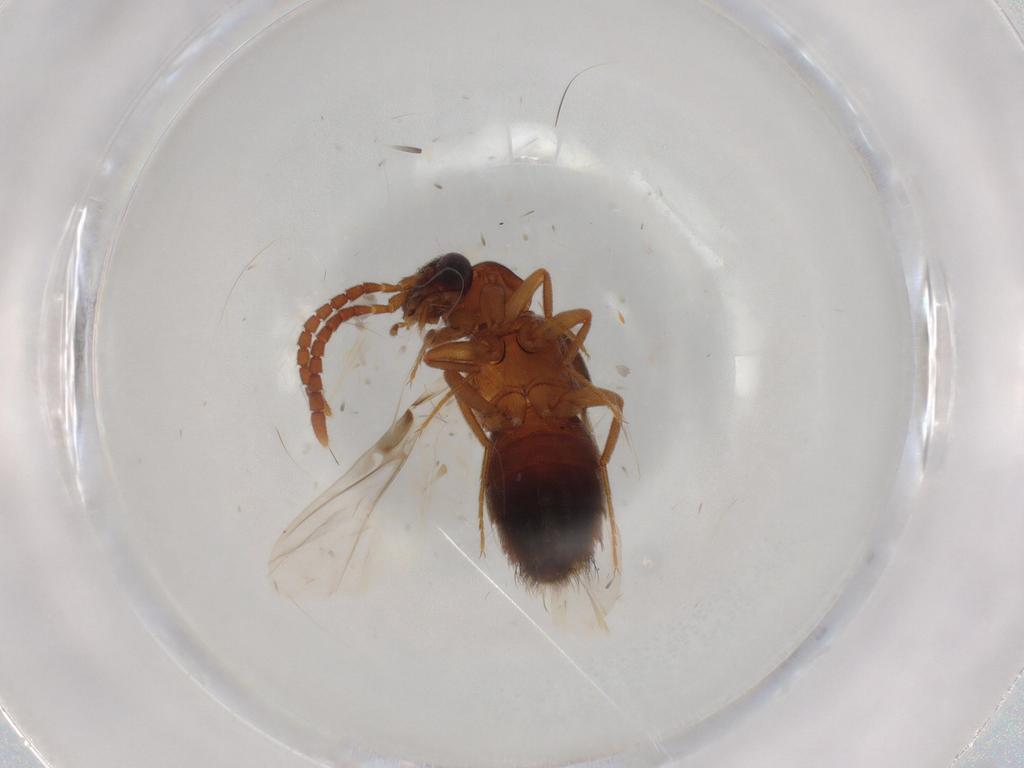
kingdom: Animalia
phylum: Arthropoda
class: Insecta
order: Coleoptera
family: Staphylinidae
